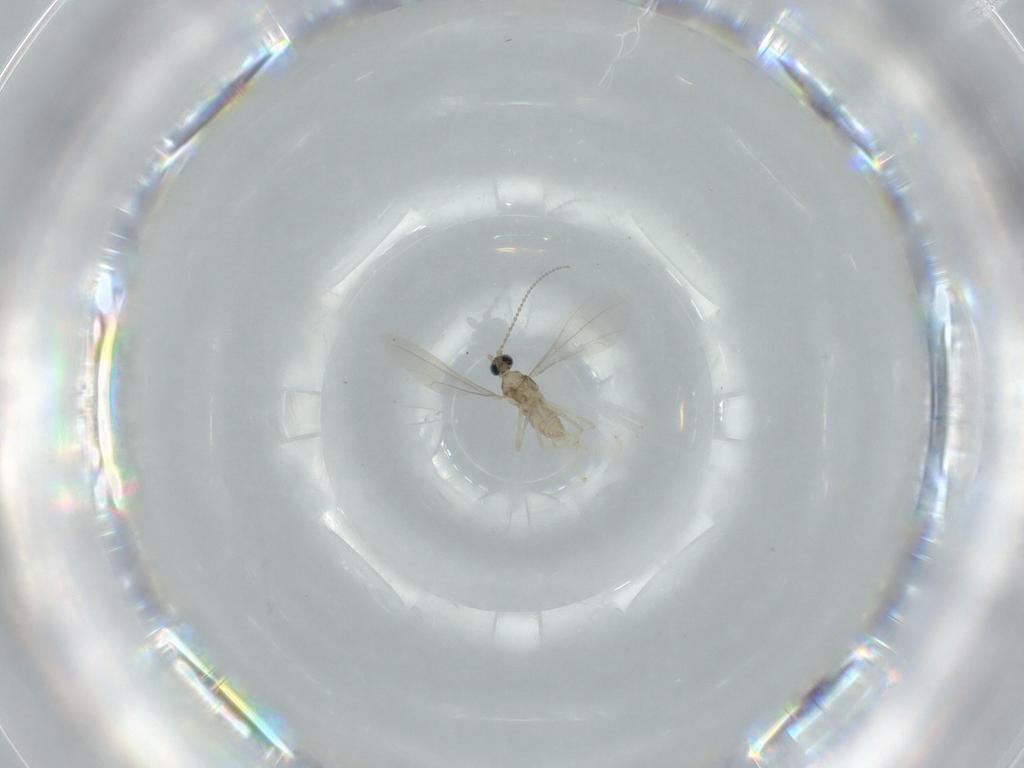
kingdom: Animalia
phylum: Arthropoda
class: Insecta
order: Diptera
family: Cecidomyiidae
